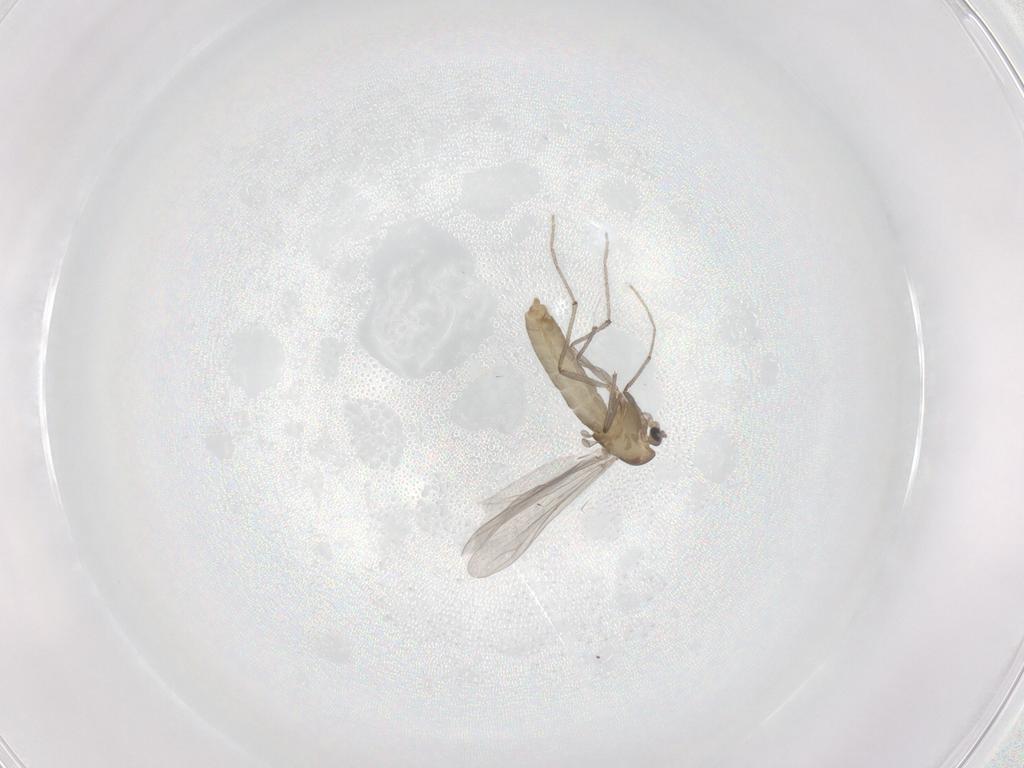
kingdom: Animalia
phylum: Arthropoda
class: Insecta
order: Diptera
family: Chironomidae
